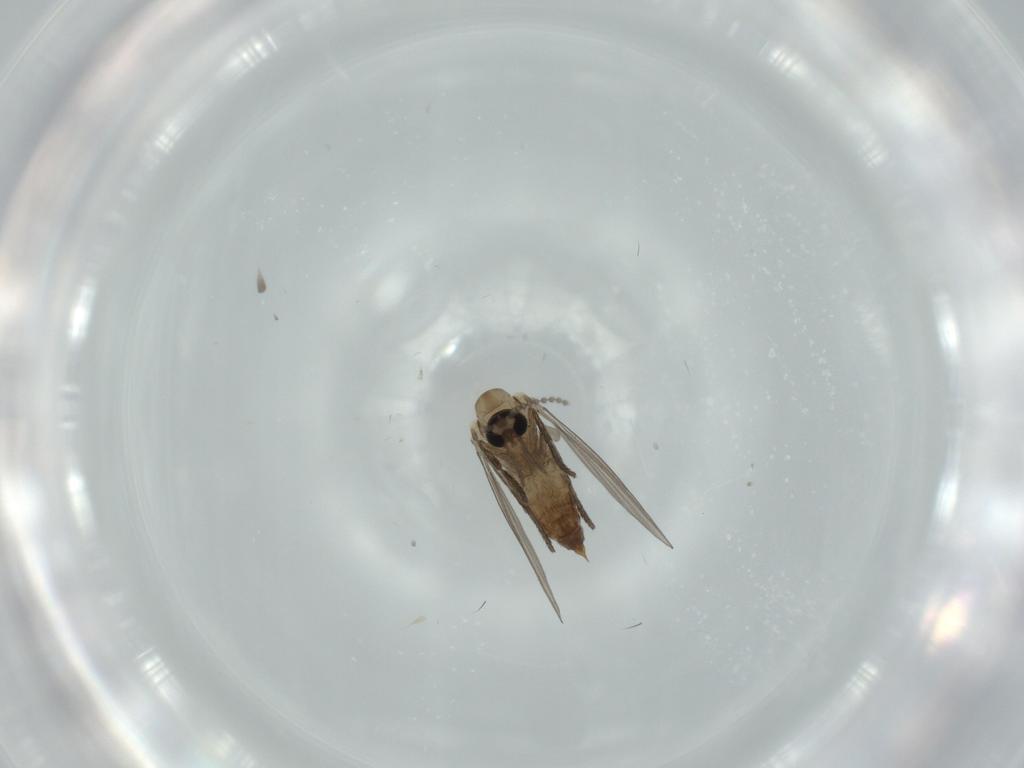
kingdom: Animalia
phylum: Arthropoda
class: Insecta
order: Diptera
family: Psychodidae
